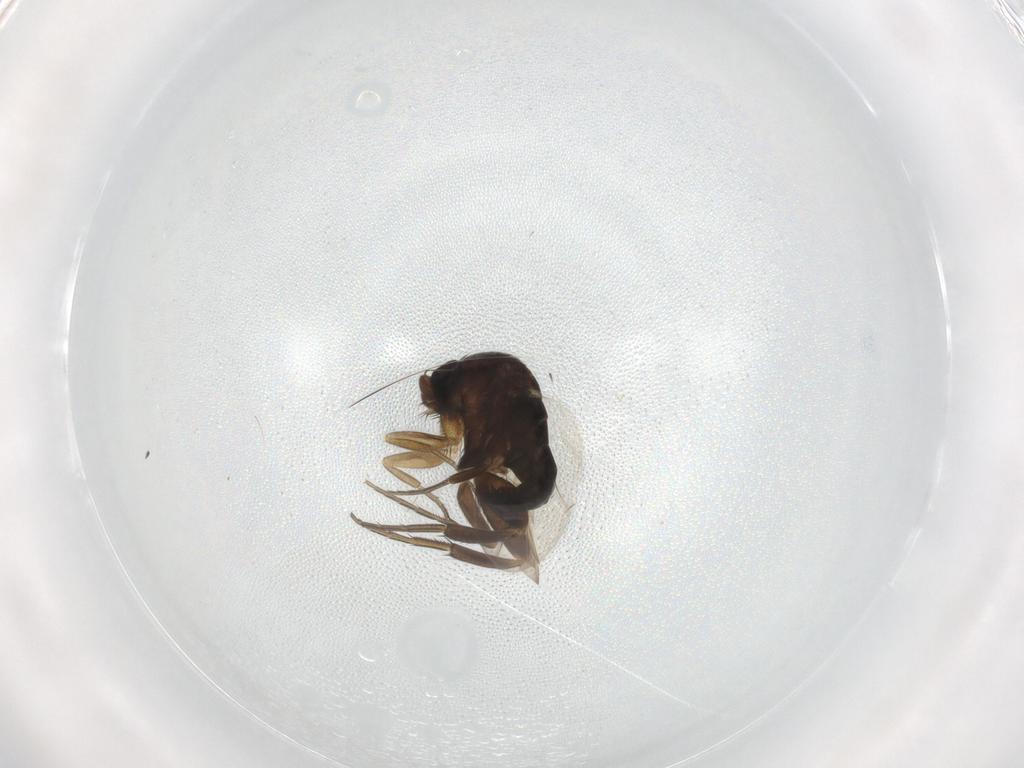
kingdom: Animalia
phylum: Arthropoda
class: Insecta
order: Diptera
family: Phoridae
